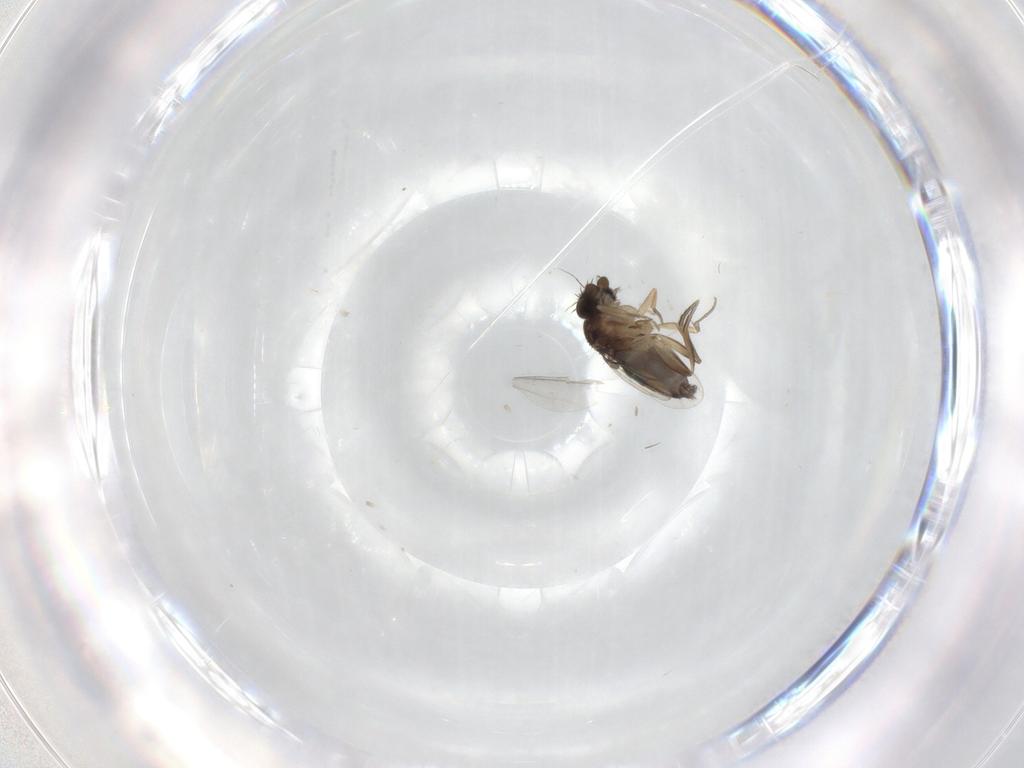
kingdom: Animalia
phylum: Arthropoda
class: Insecta
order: Diptera
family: Phoridae
